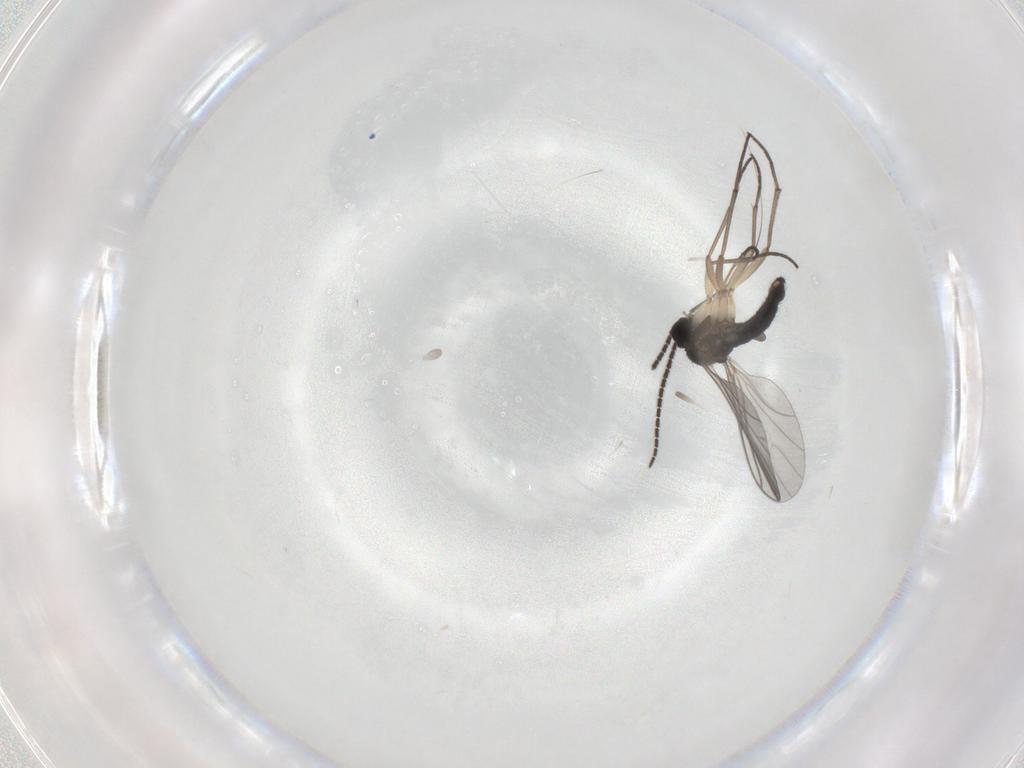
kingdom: Animalia
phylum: Arthropoda
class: Insecta
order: Diptera
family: Sciaridae
